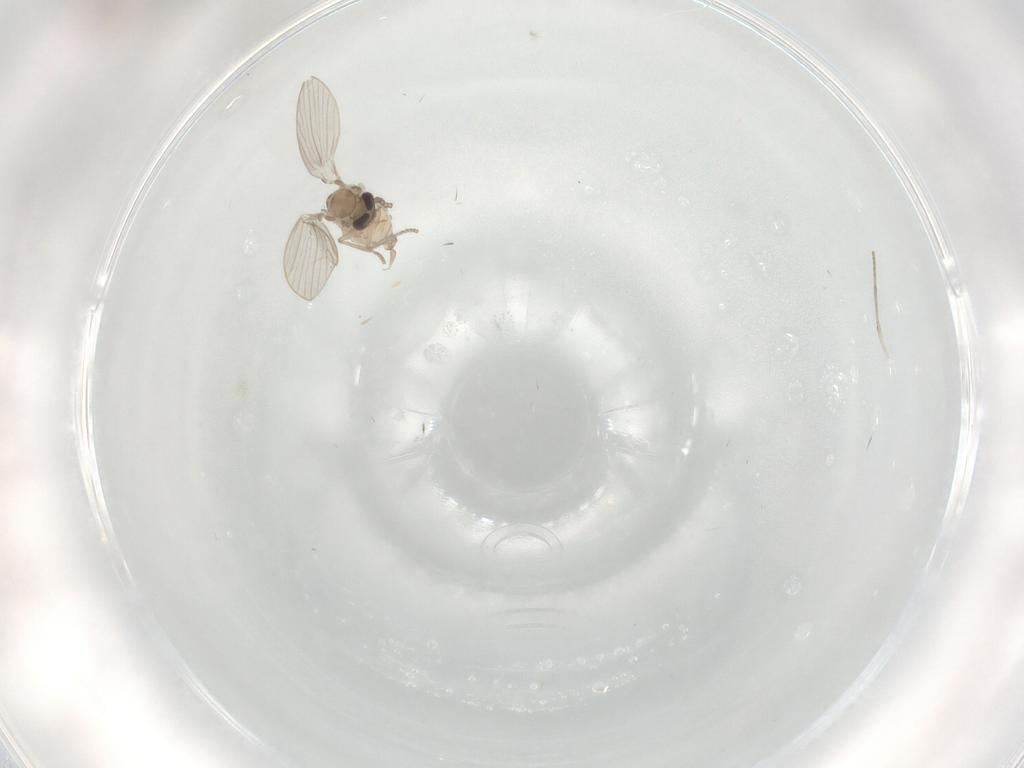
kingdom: Animalia
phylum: Arthropoda
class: Insecta
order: Diptera
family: Psychodidae
